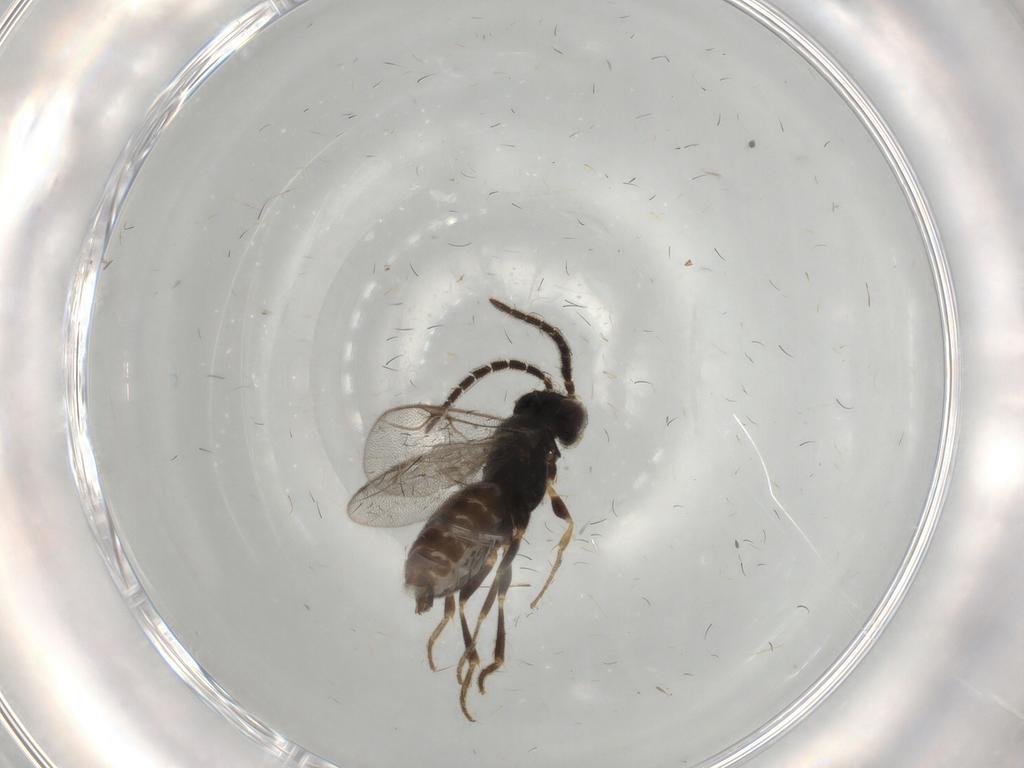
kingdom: Animalia
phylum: Arthropoda
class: Insecta
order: Hymenoptera
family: Dryinidae
